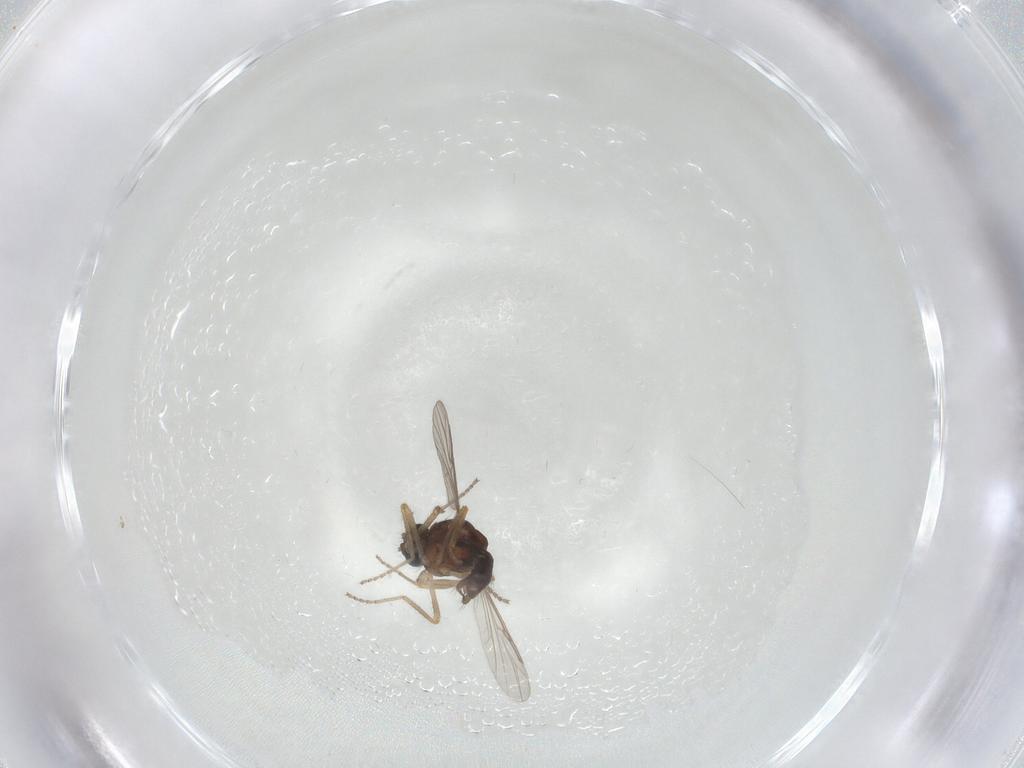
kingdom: Animalia
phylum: Arthropoda
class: Insecta
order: Diptera
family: Ceratopogonidae
